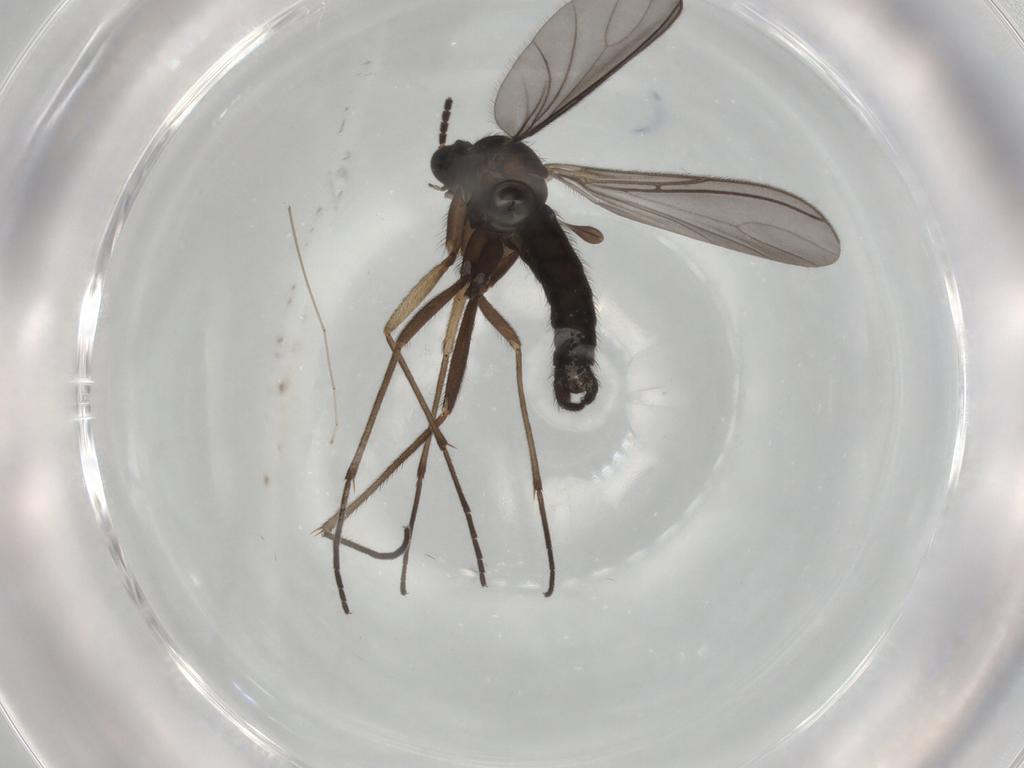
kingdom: Animalia
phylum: Arthropoda
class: Insecta
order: Diptera
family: Sciaridae
